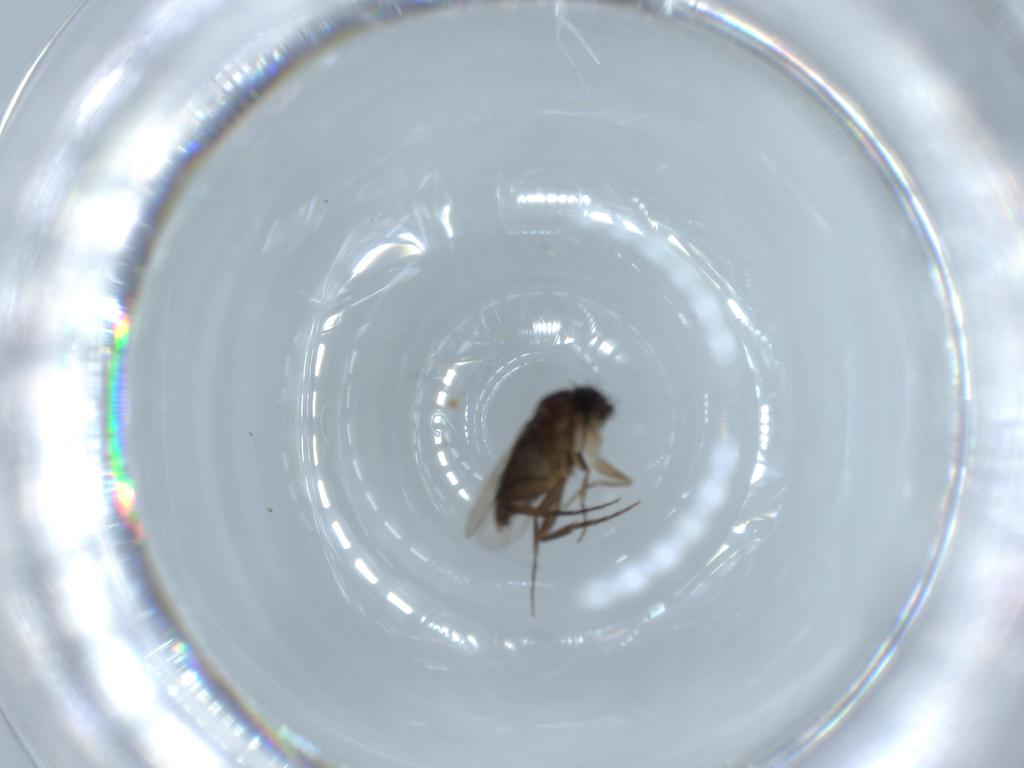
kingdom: Animalia
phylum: Arthropoda
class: Insecta
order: Diptera
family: Phoridae
